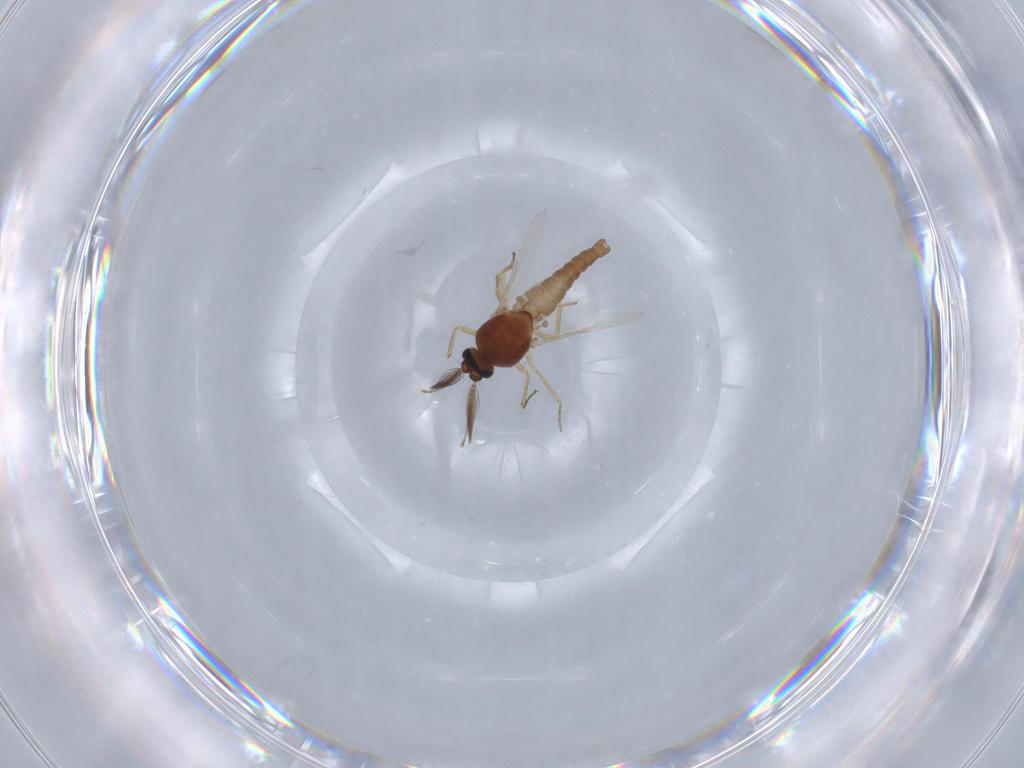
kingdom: Animalia
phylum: Arthropoda
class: Insecta
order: Diptera
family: Ceratopogonidae
